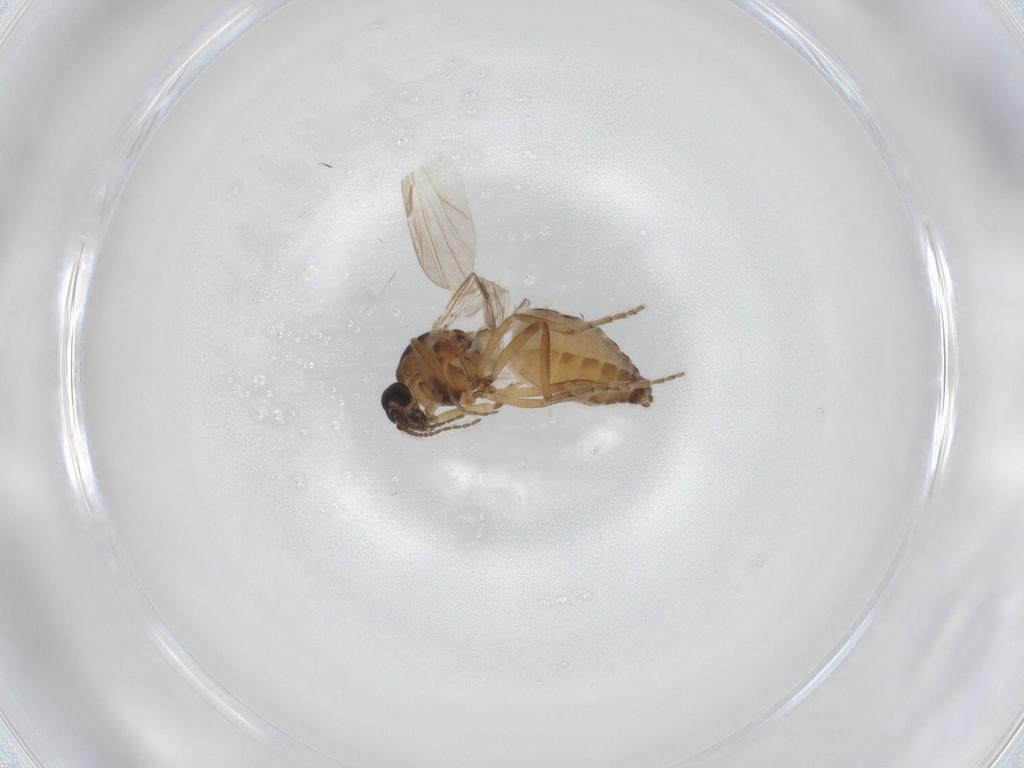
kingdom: Animalia
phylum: Arthropoda
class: Insecta
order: Diptera
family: Ceratopogonidae
